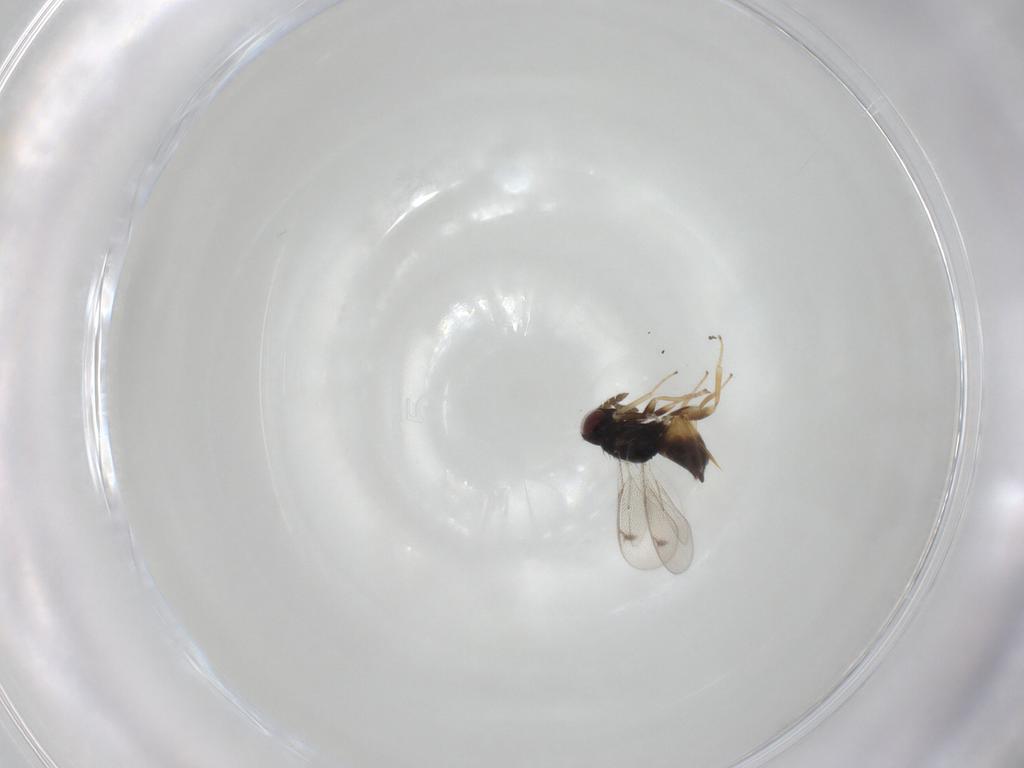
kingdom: Animalia
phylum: Arthropoda
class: Insecta
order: Hymenoptera
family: Eulophidae
